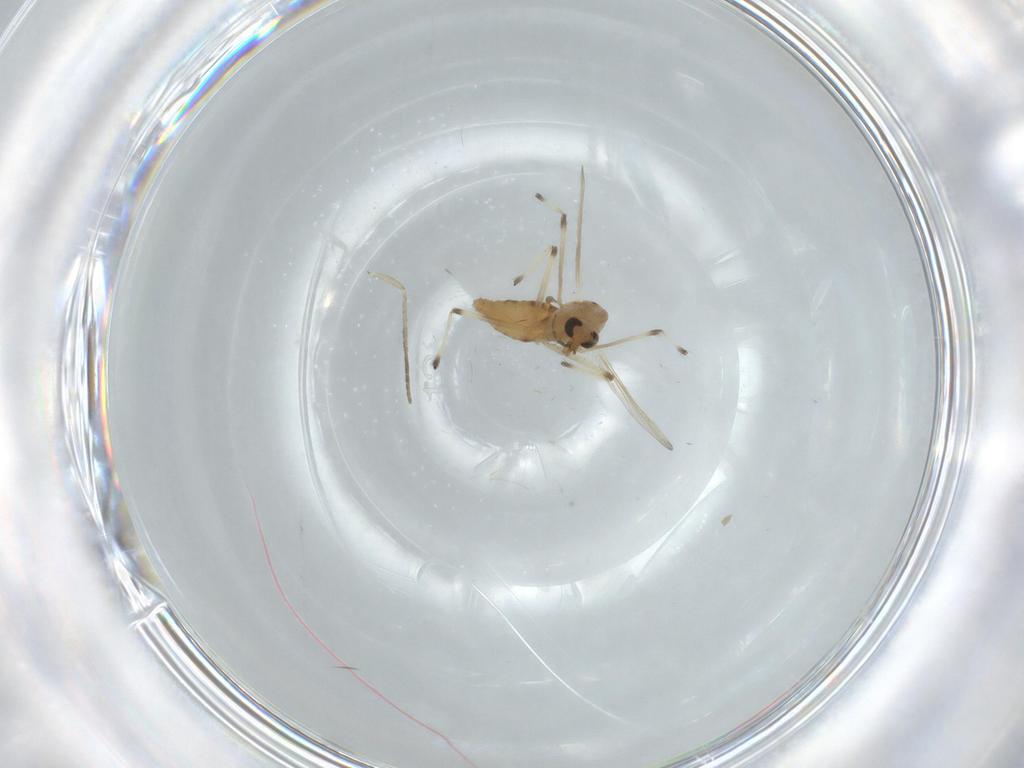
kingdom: Animalia
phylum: Arthropoda
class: Insecta
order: Diptera
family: Chironomidae
